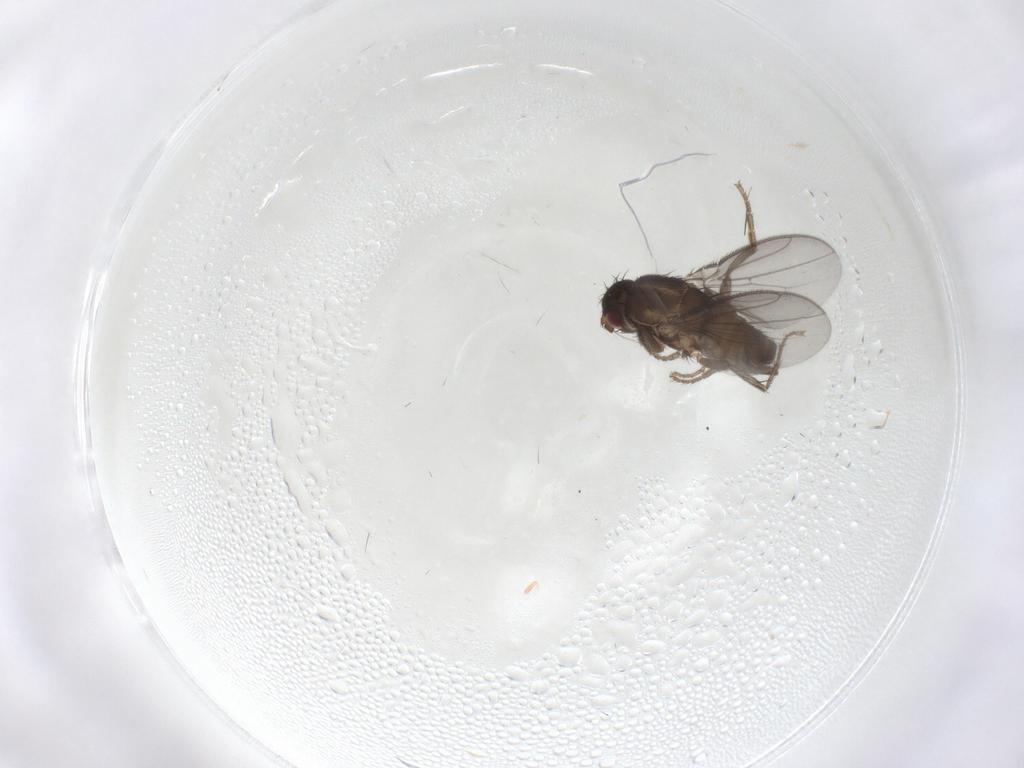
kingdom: Animalia
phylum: Arthropoda
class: Insecta
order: Diptera
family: Sphaeroceridae
